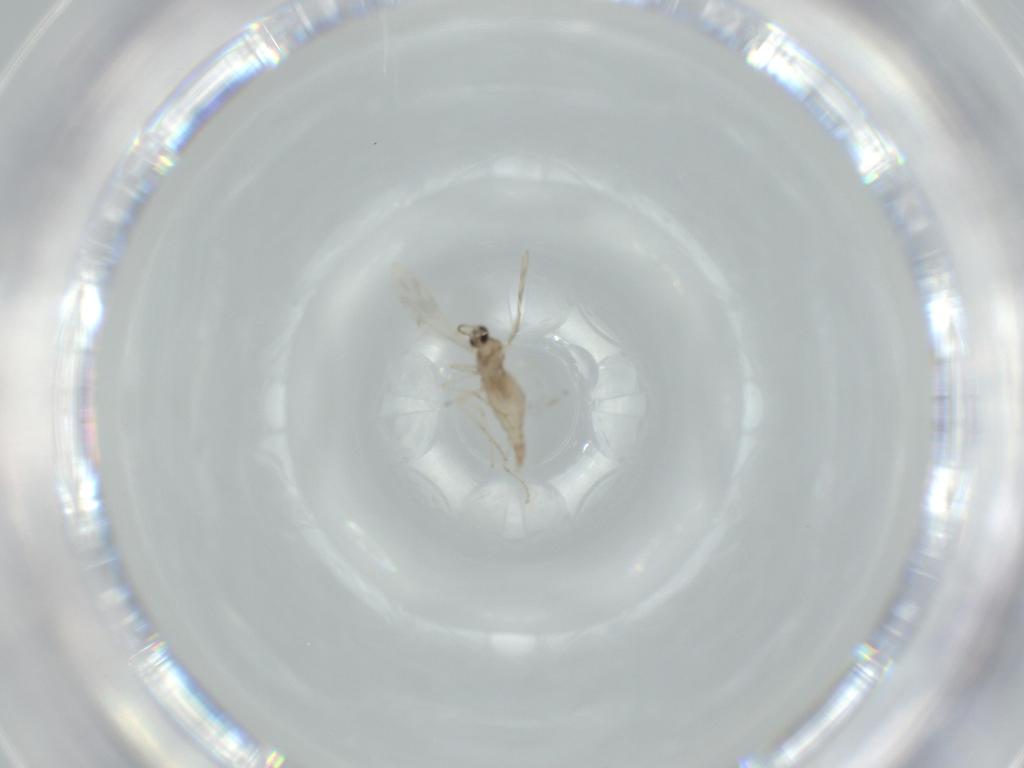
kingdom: Animalia
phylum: Arthropoda
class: Insecta
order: Diptera
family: Cecidomyiidae
